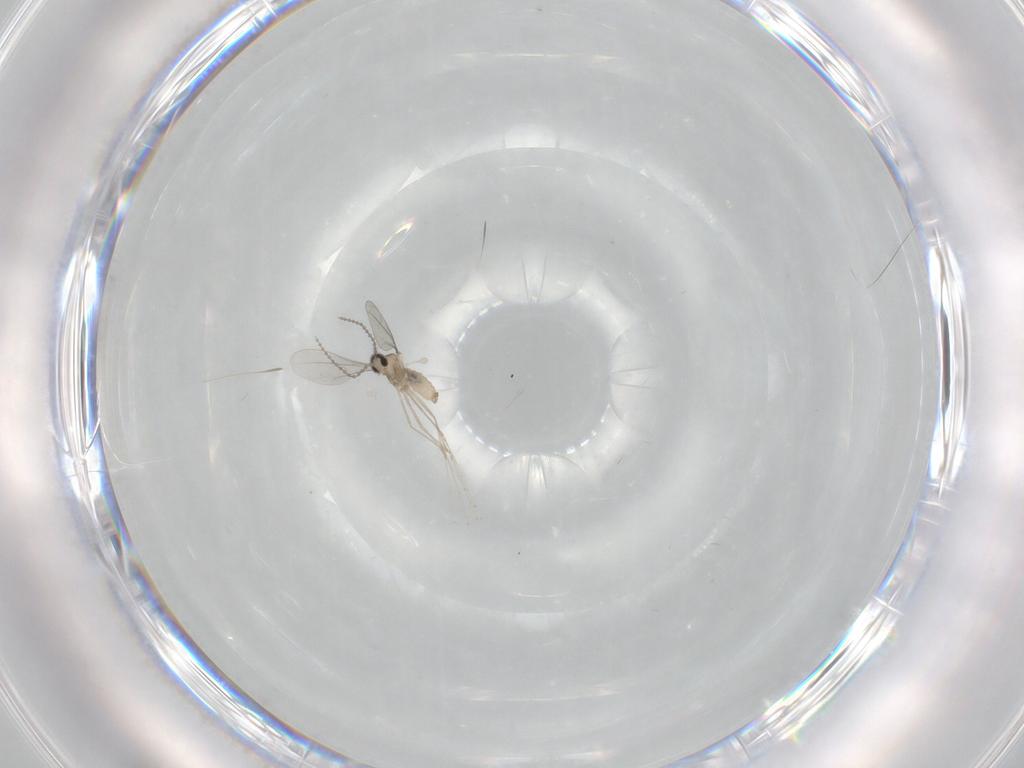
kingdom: Animalia
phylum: Arthropoda
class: Insecta
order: Diptera
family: Cecidomyiidae
